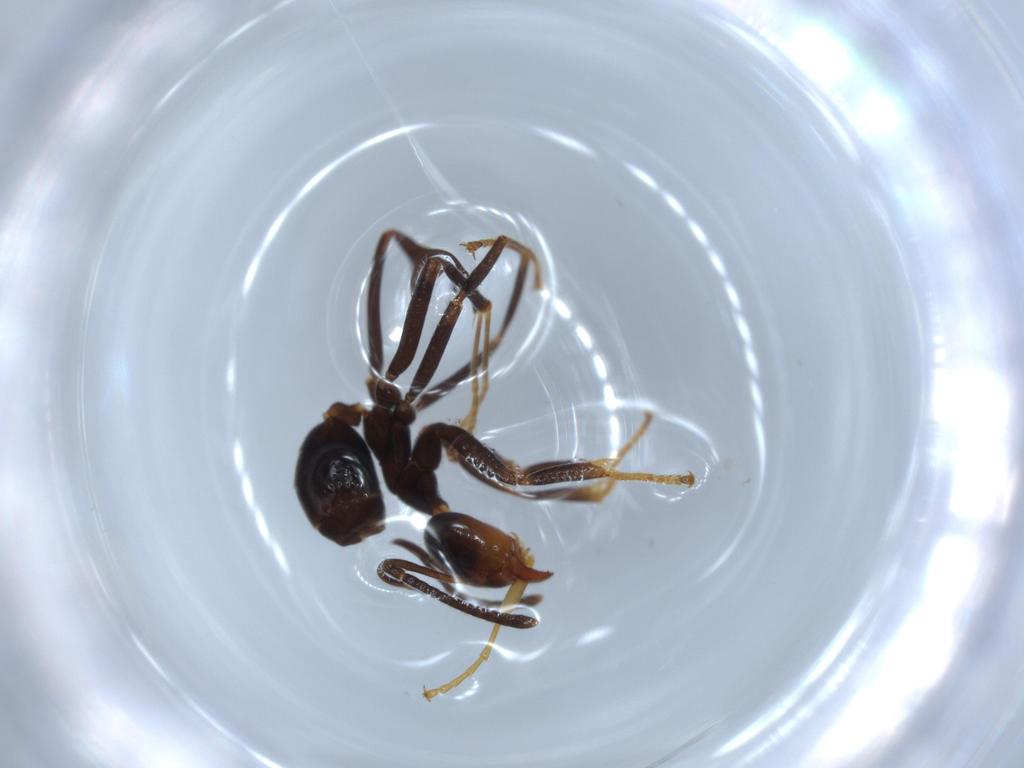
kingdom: Animalia
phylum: Arthropoda
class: Insecta
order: Hymenoptera
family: Formicidae
